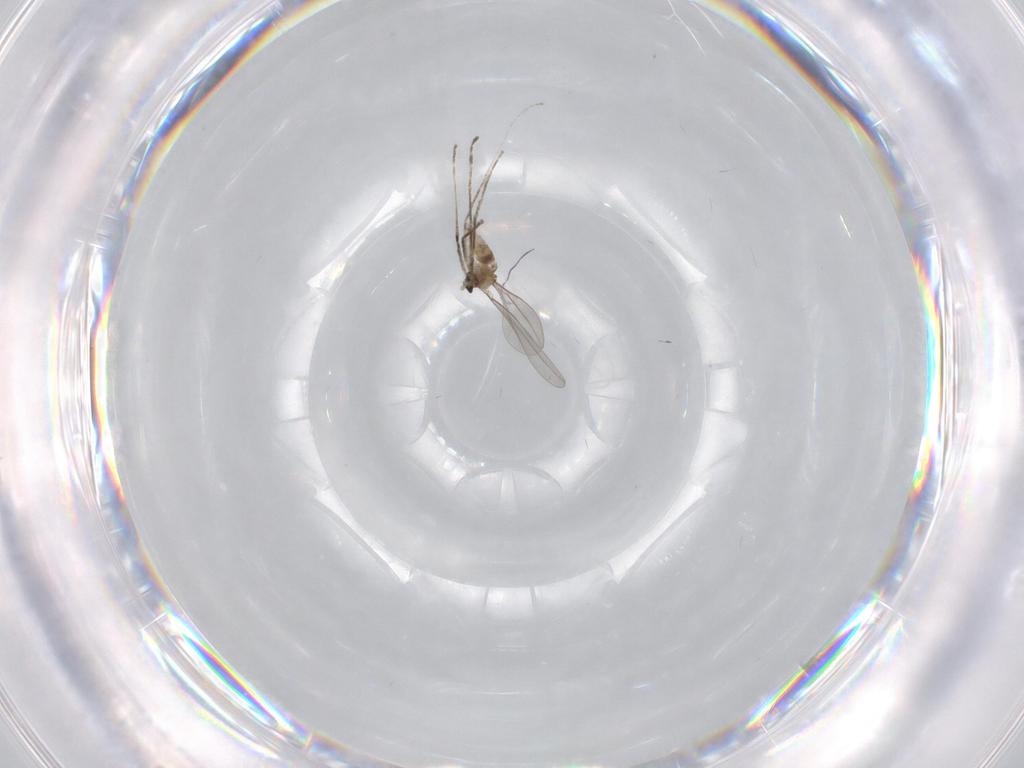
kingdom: Animalia
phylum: Arthropoda
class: Insecta
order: Diptera
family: Cecidomyiidae
